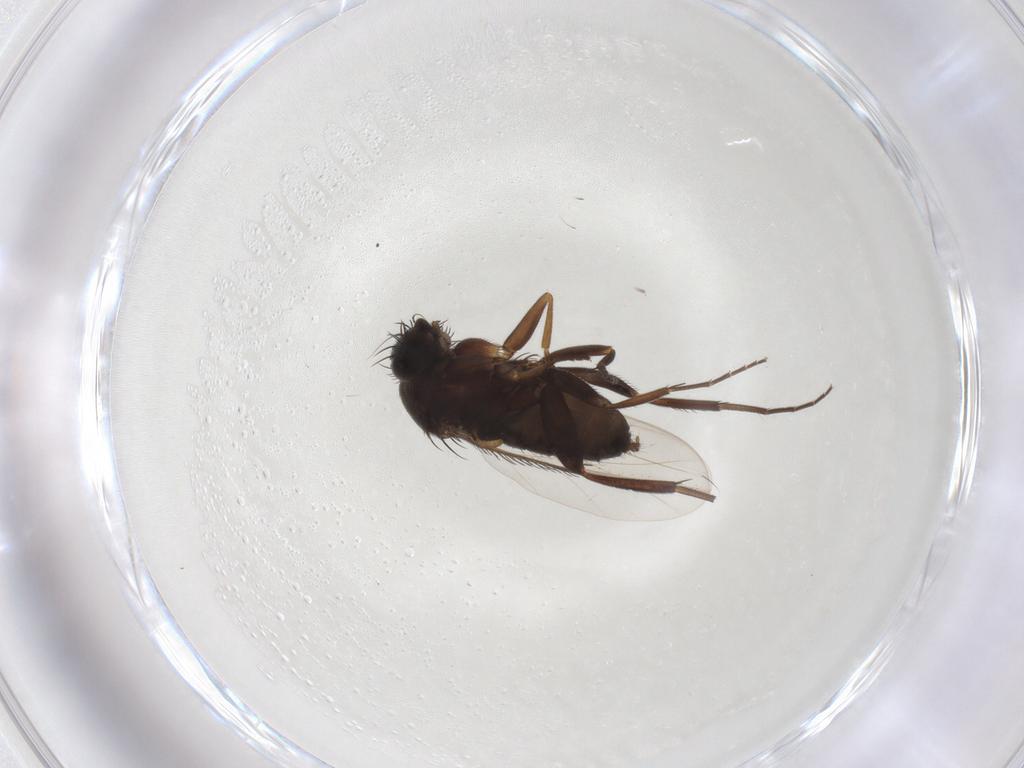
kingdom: Animalia
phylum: Arthropoda
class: Insecta
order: Diptera
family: Phoridae
